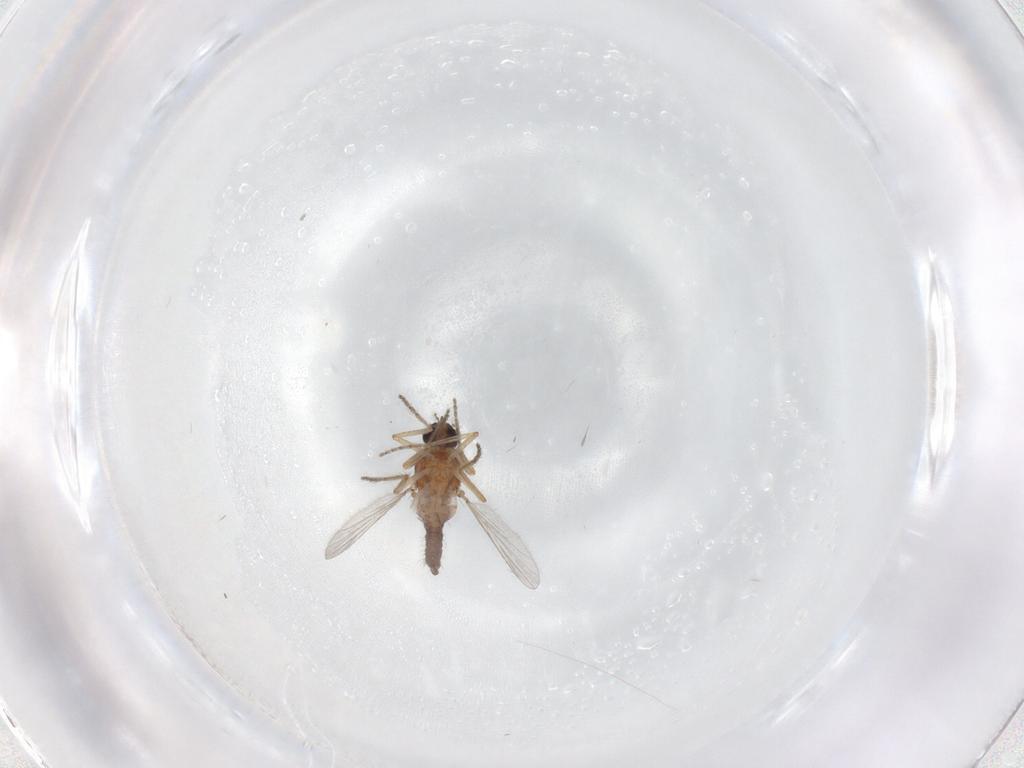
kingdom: Animalia
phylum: Arthropoda
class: Insecta
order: Diptera
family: Ceratopogonidae
